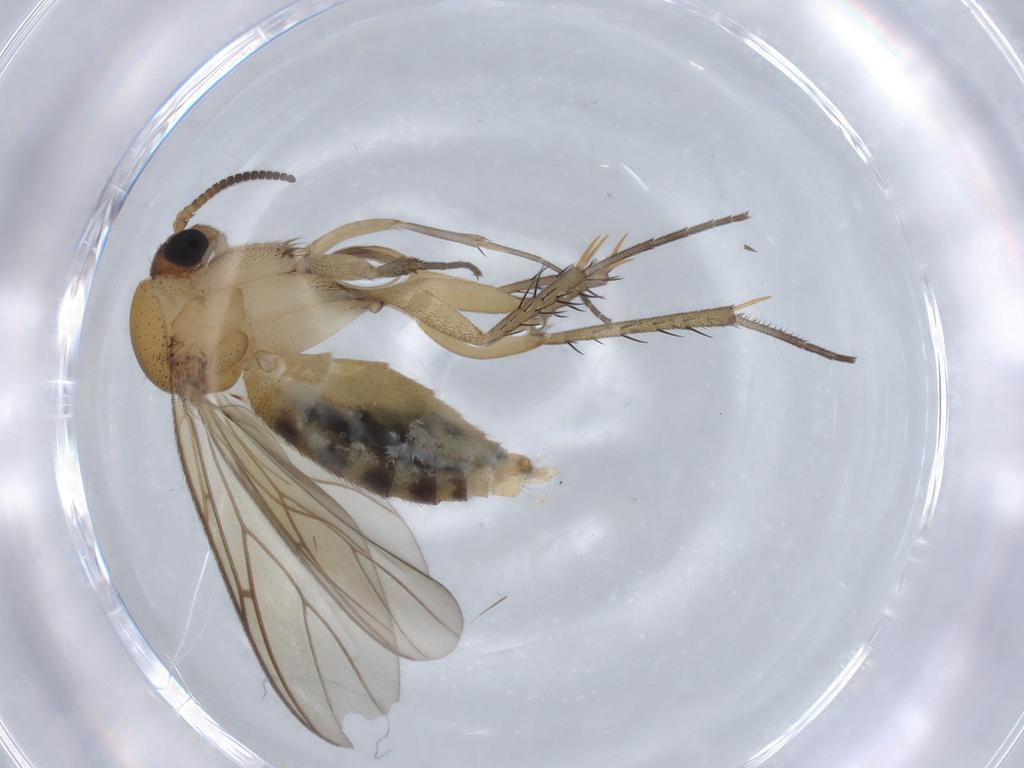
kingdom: Animalia
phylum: Arthropoda
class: Insecta
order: Diptera
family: Mycetophilidae
